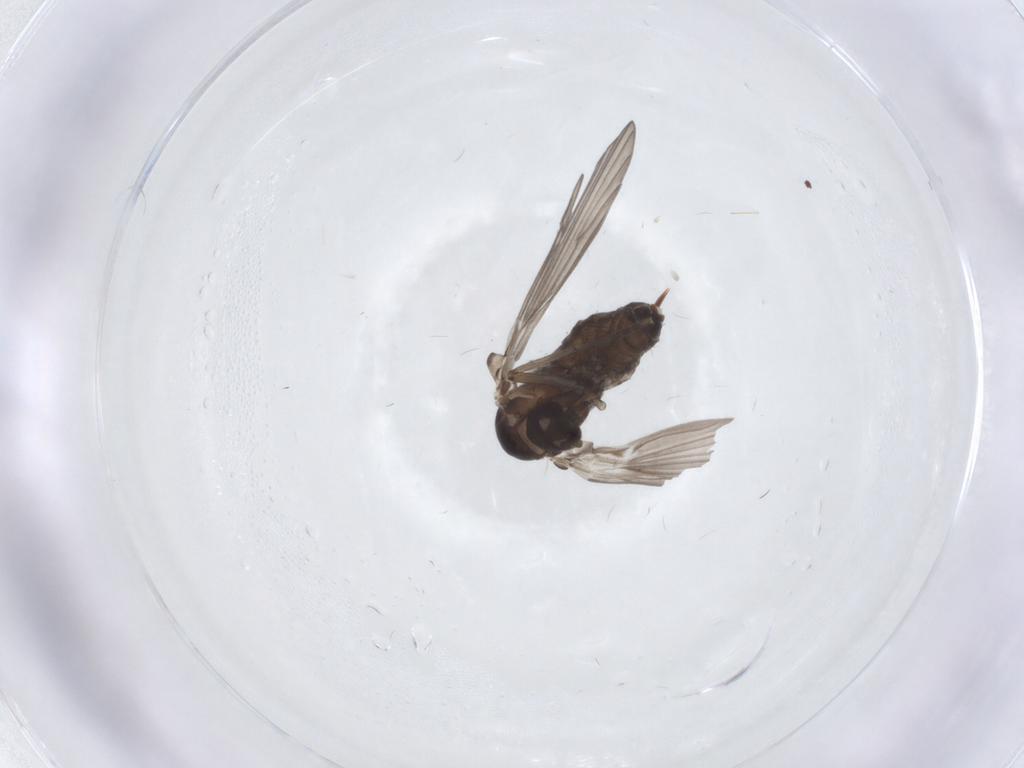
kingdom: Animalia
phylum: Arthropoda
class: Insecta
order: Diptera
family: Psychodidae
